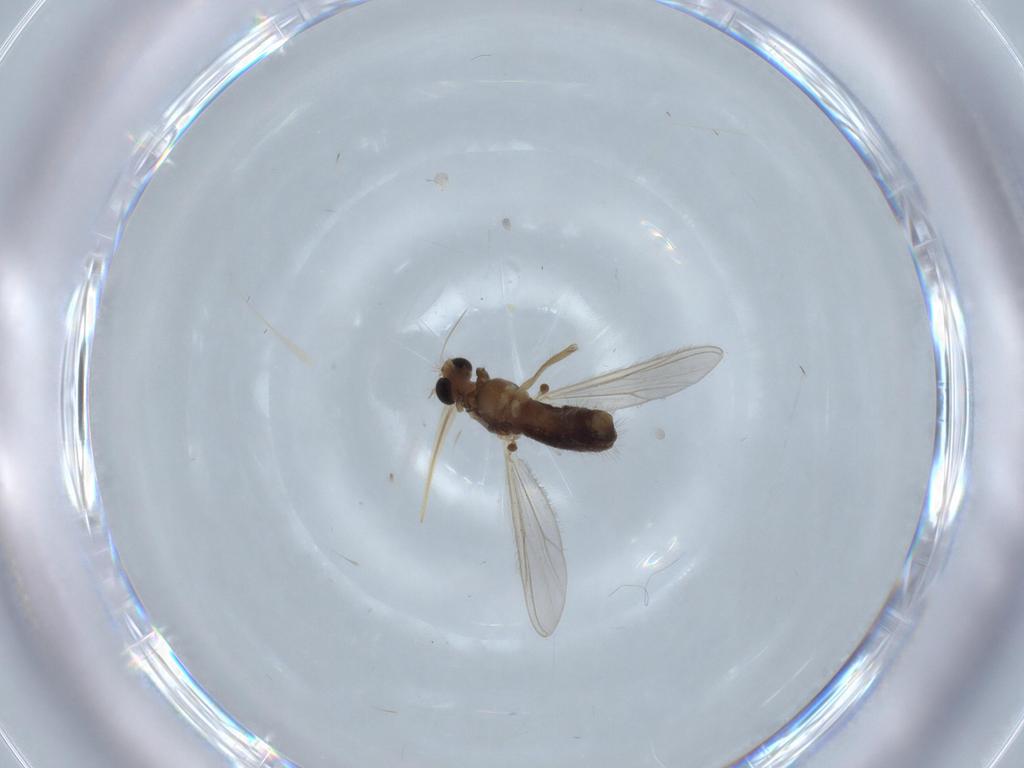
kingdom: Animalia
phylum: Arthropoda
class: Insecta
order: Diptera
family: Chironomidae
